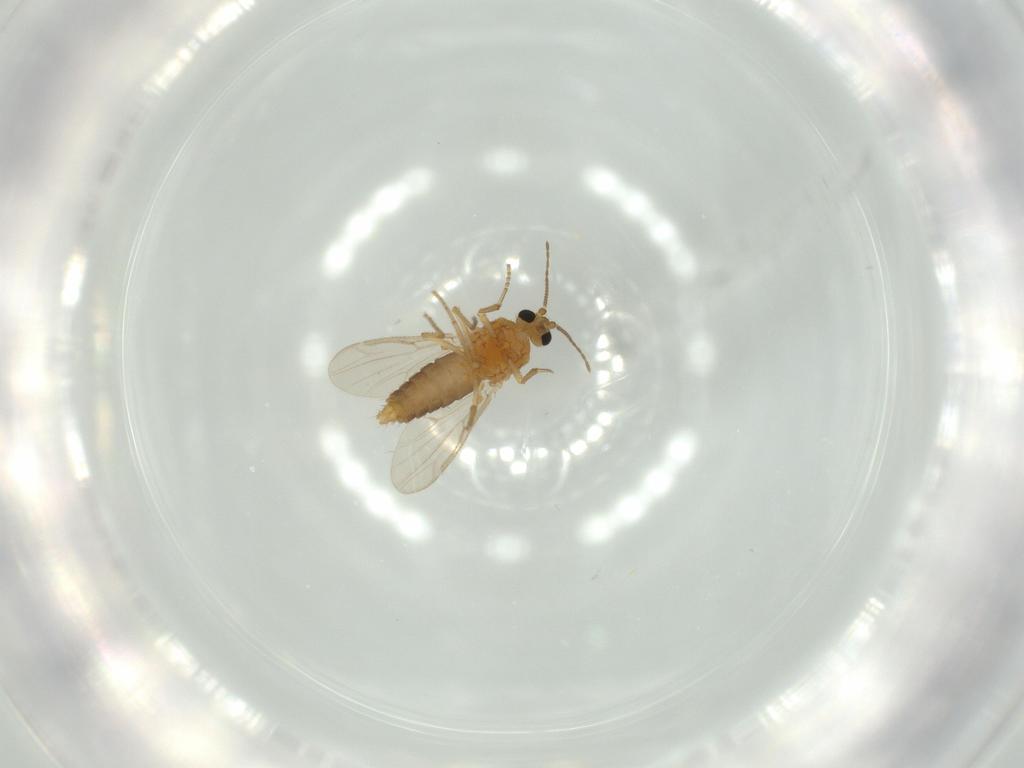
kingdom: Animalia
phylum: Arthropoda
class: Insecta
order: Diptera
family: Ceratopogonidae
